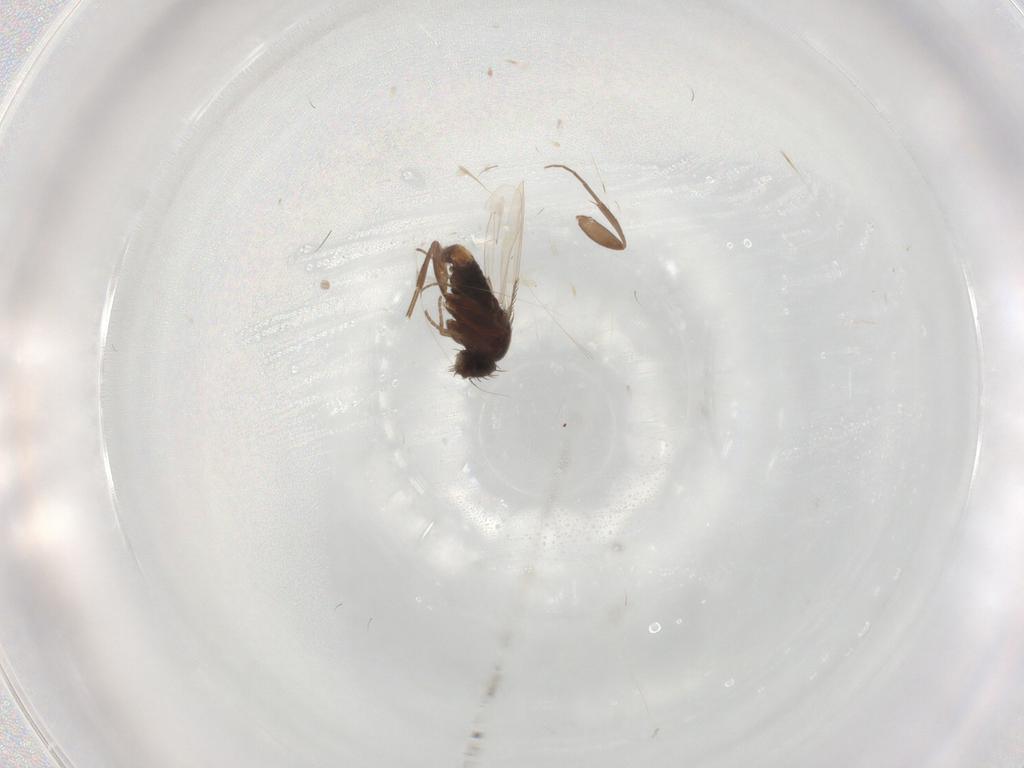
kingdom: Animalia
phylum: Arthropoda
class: Insecta
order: Diptera
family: Phoridae
